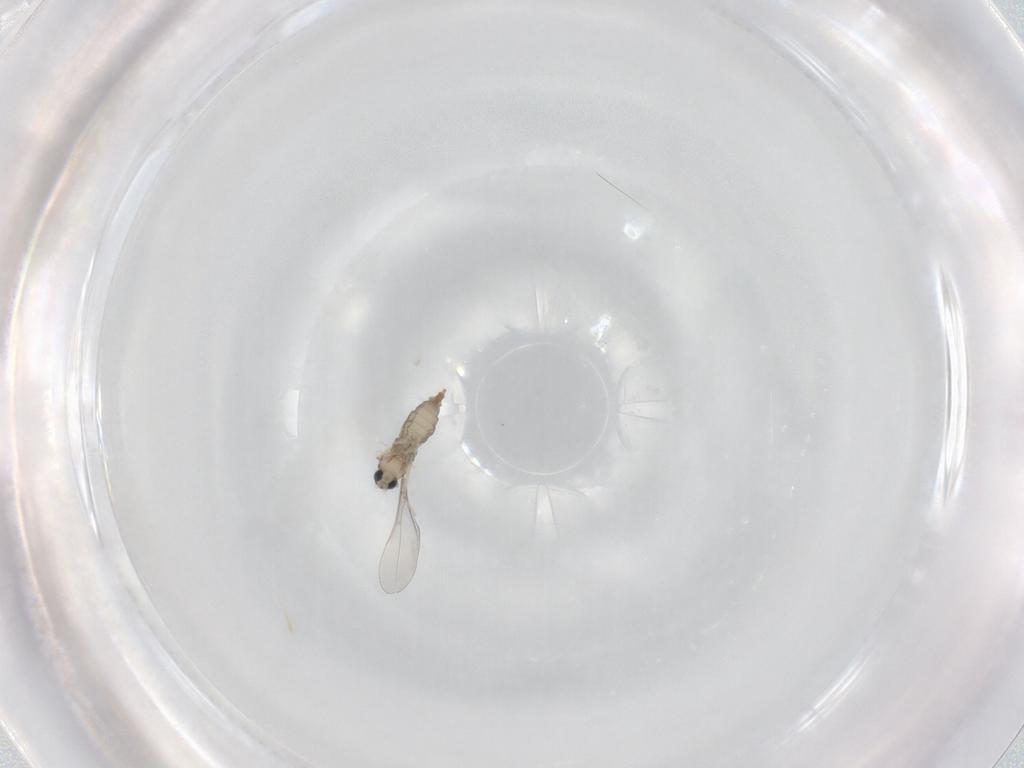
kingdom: Animalia
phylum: Arthropoda
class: Insecta
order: Diptera
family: Cecidomyiidae
